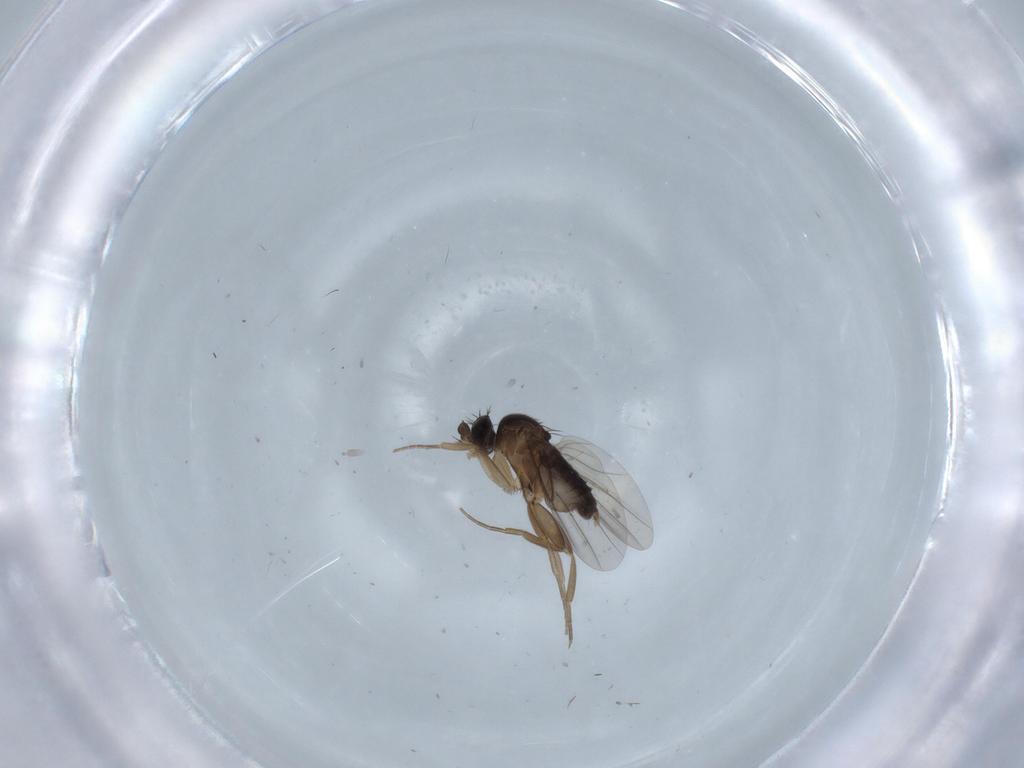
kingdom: Animalia
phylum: Arthropoda
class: Insecta
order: Diptera
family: Phoridae
